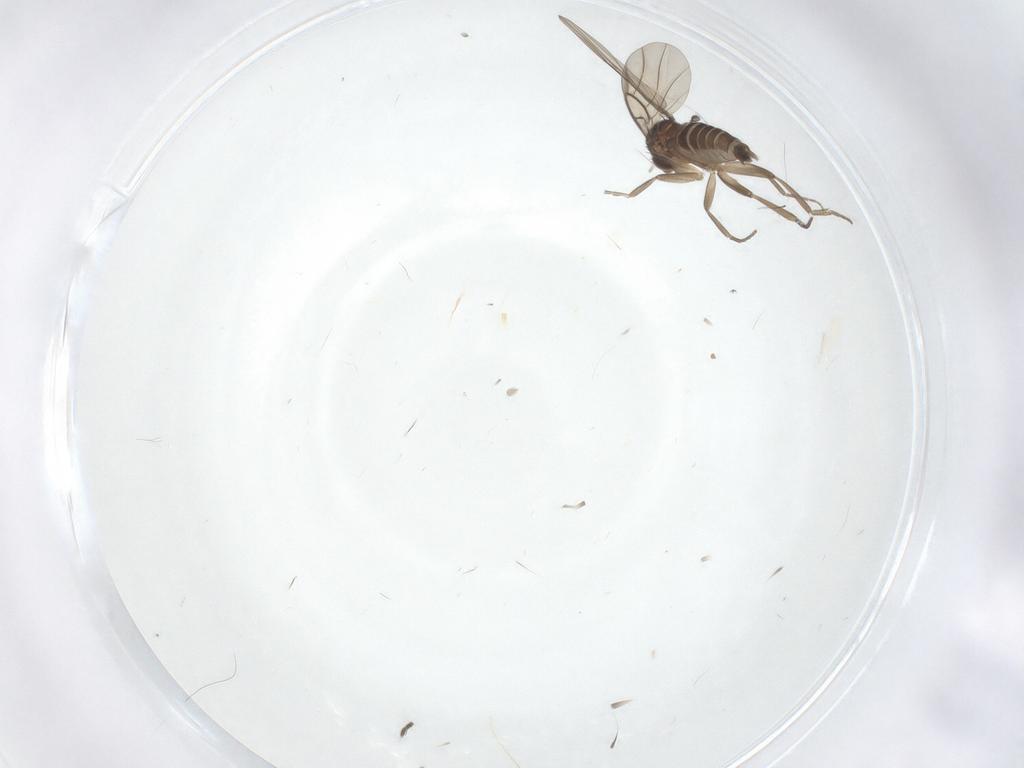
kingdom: Animalia
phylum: Arthropoda
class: Insecta
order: Diptera
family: Phoridae
